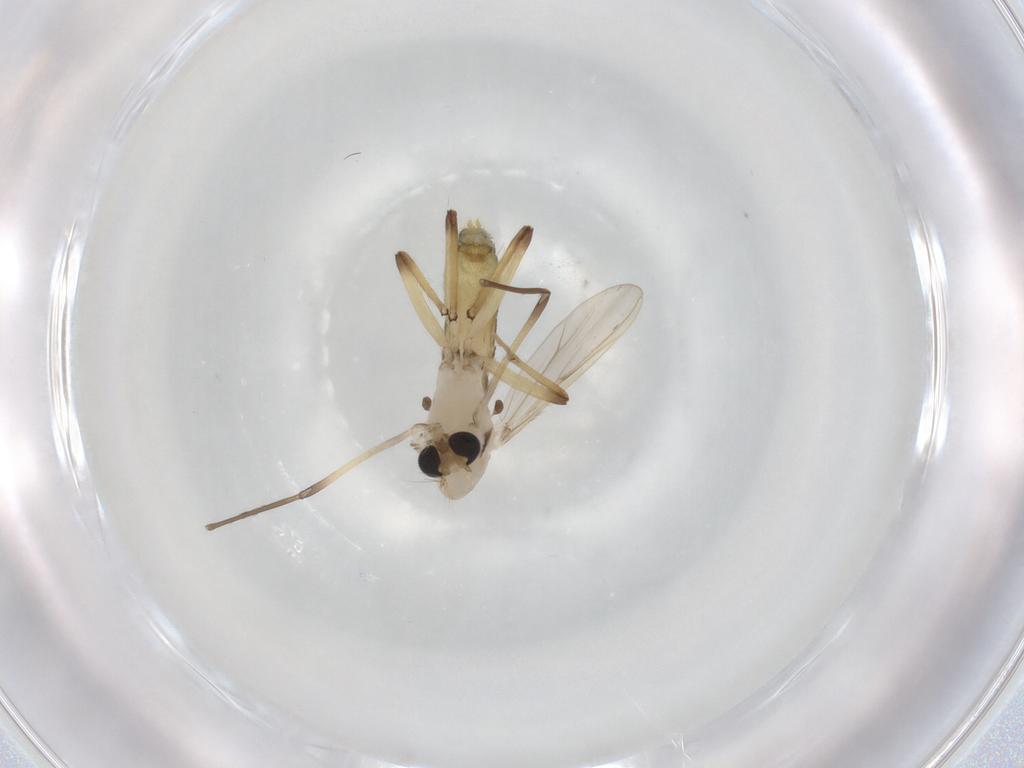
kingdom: Animalia
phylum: Arthropoda
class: Insecta
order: Diptera
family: Chironomidae
